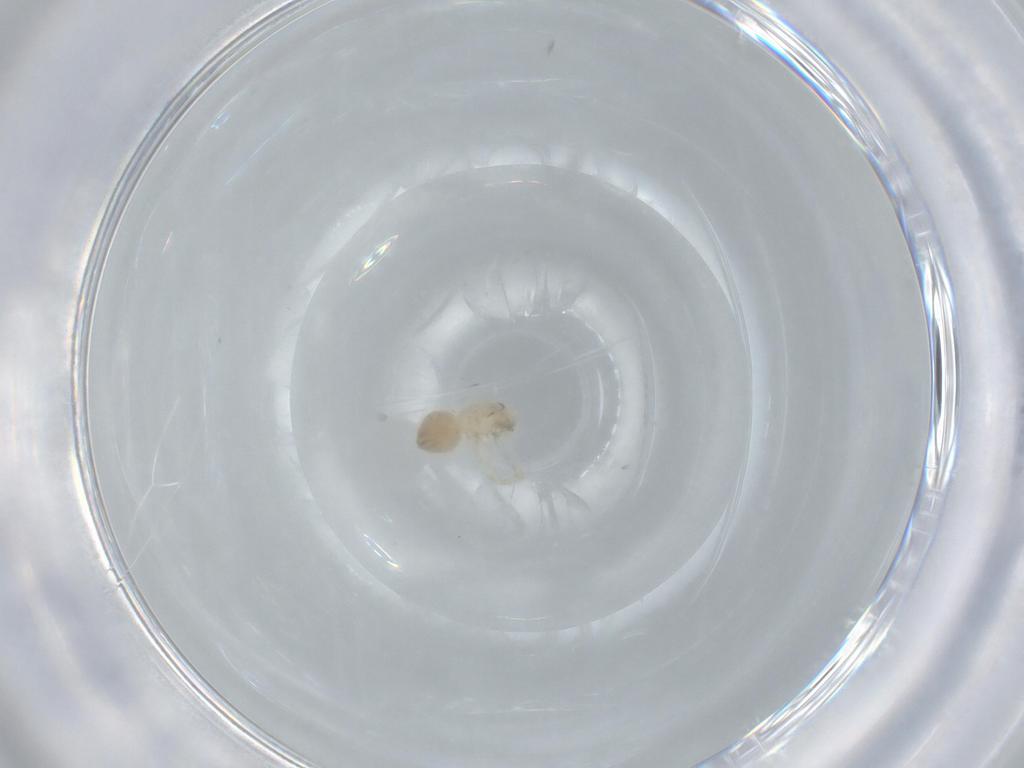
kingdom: Animalia
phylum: Arthropoda
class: Arachnida
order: Araneae
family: Oonopidae
